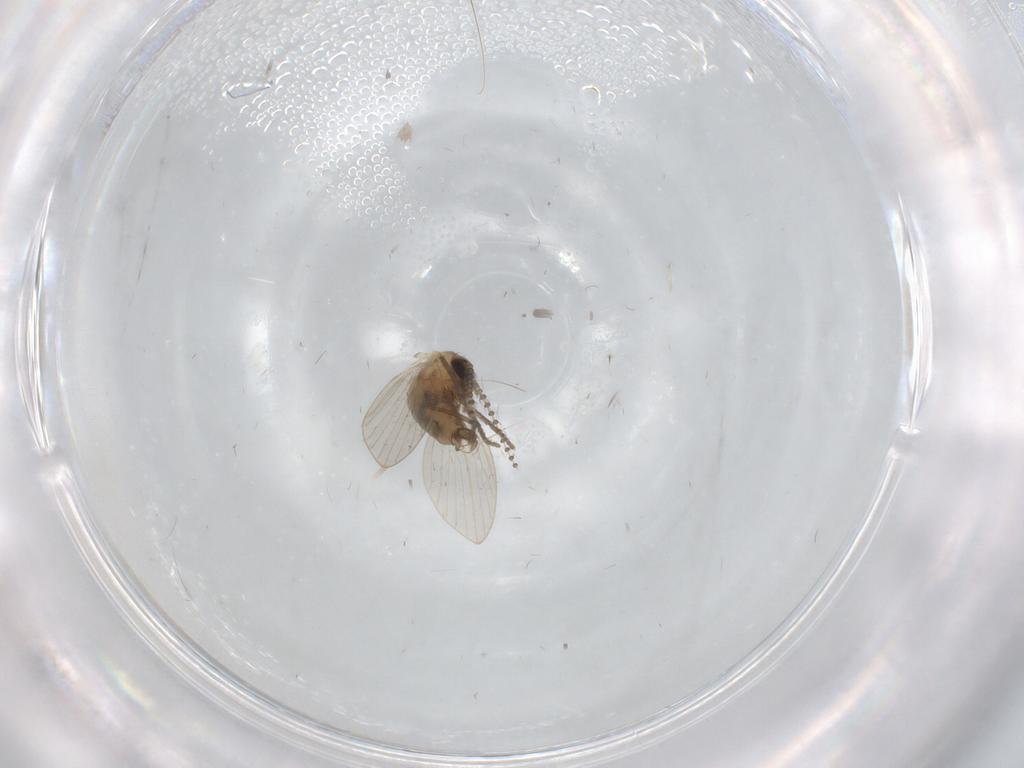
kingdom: Animalia
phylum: Arthropoda
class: Insecta
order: Diptera
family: Psychodidae
